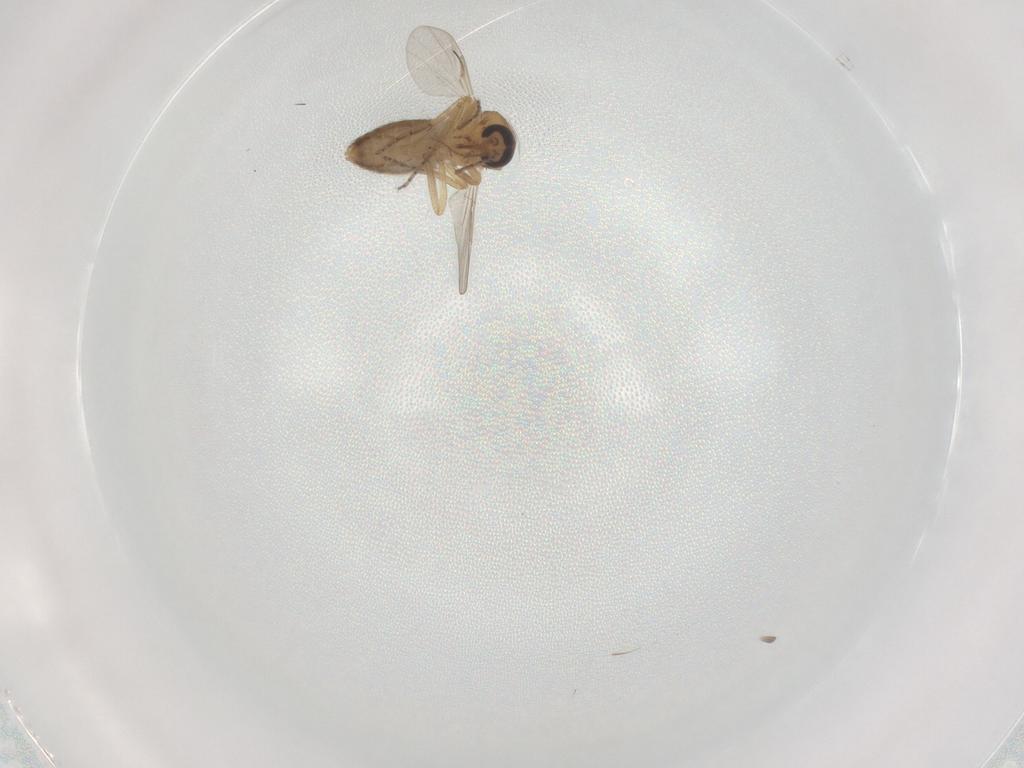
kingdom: Animalia
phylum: Arthropoda
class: Insecta
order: Diptera
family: Ceratopogonidae
